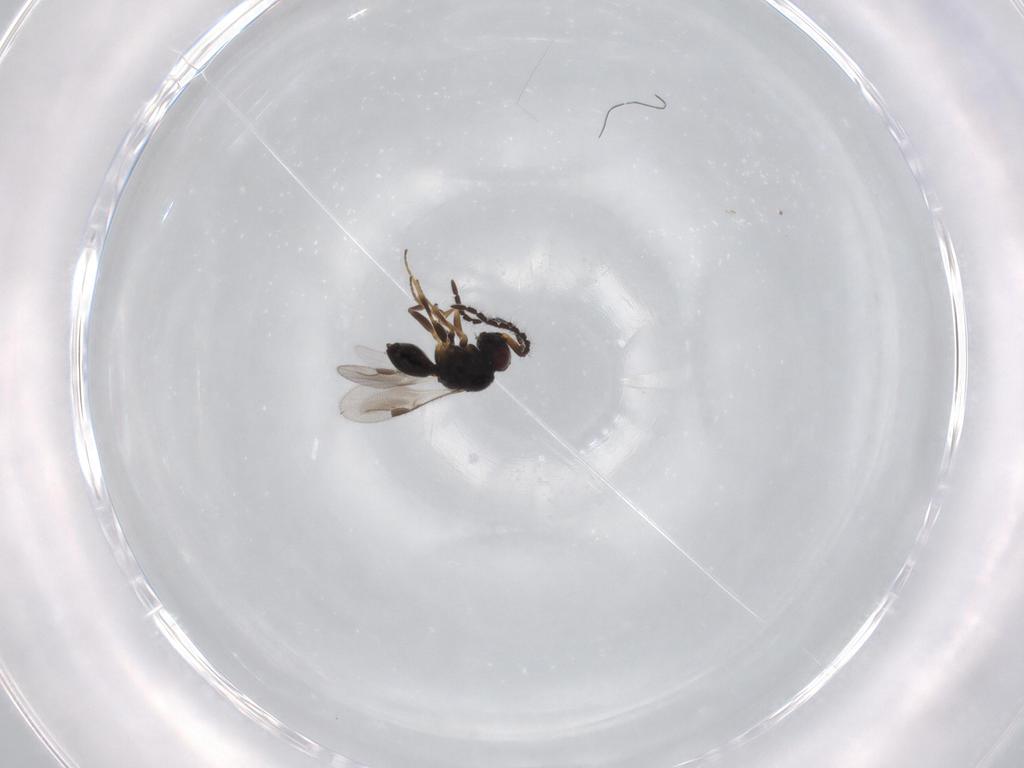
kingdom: Animalia
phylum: Arthropoda
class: Insecta
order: Hymenoptera
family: Megaspilidae
